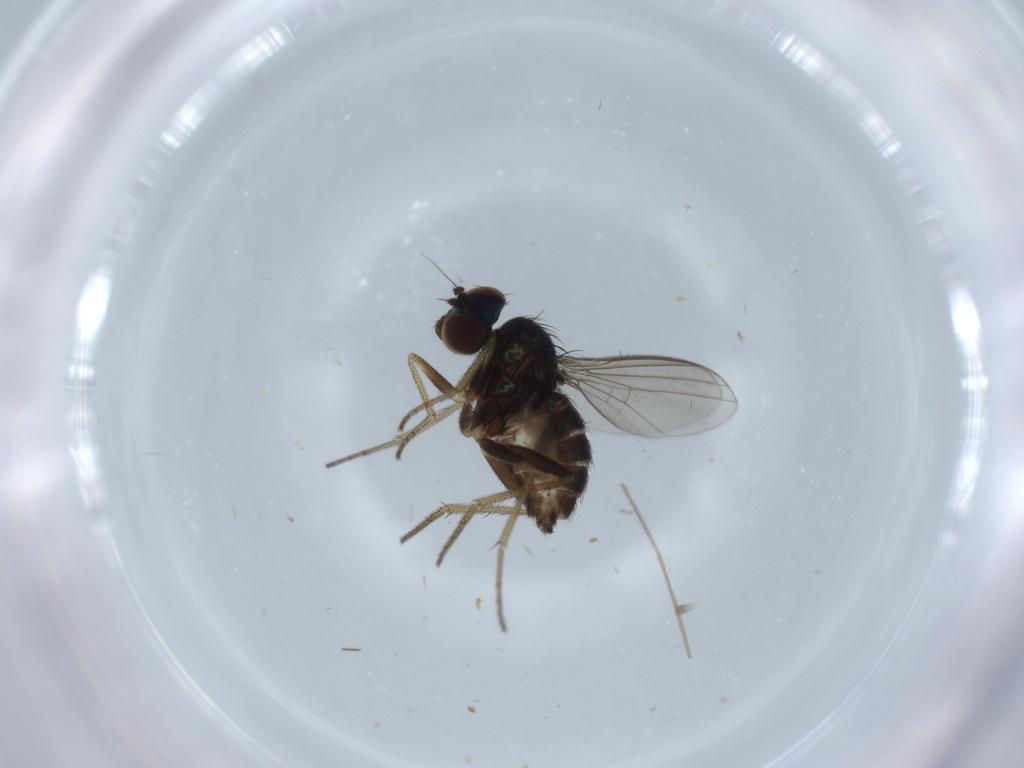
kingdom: Animalia
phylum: Arthropoda
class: Insecta
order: Diptera
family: Dolichopodidae
